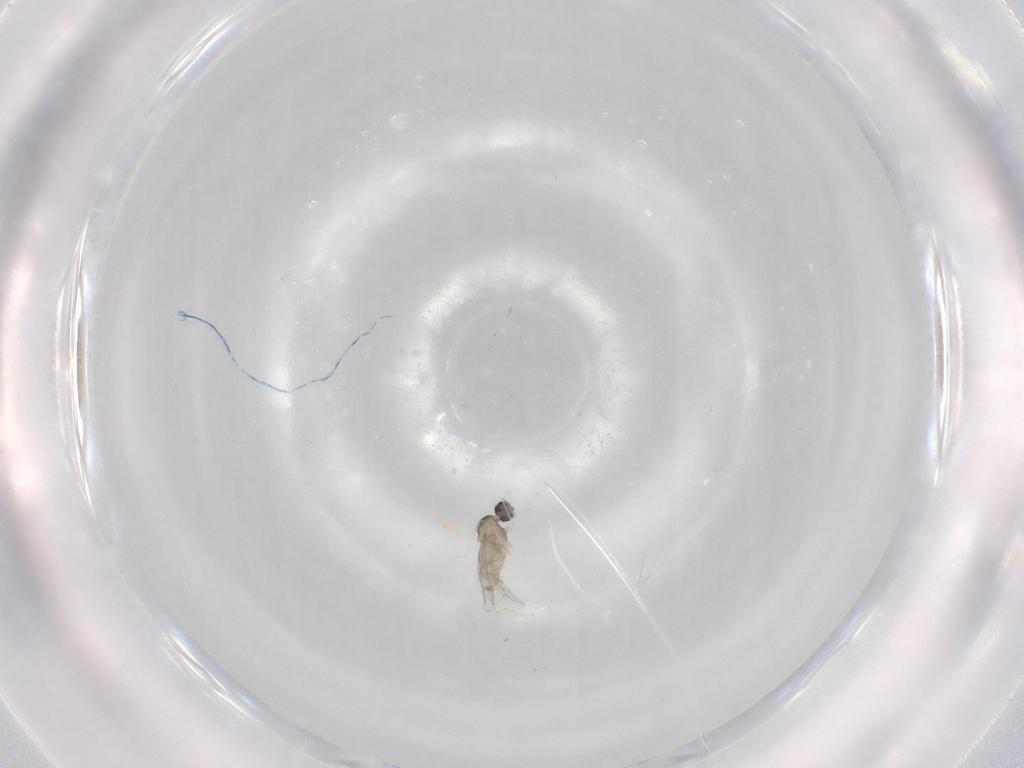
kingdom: Animalia
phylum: Arthropoda
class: Insecta
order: Diptera
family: Cecidomyiidae
